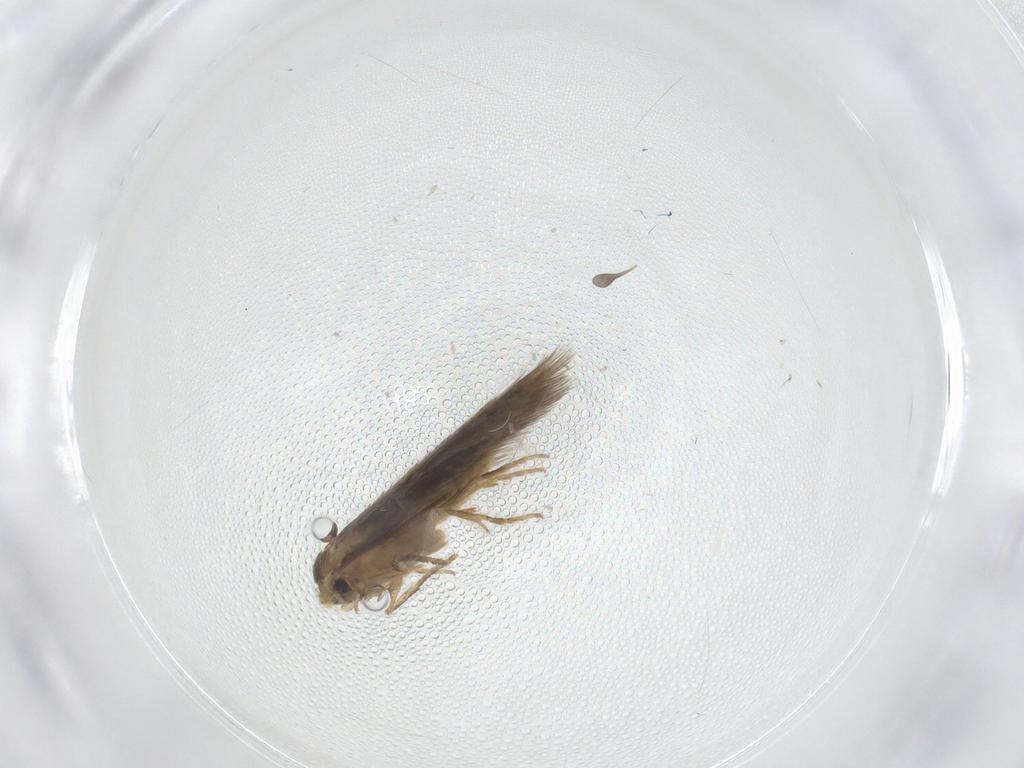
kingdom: Animalia
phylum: Arthropoda
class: Insecta
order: Lepidoptera
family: Nepticulidae
